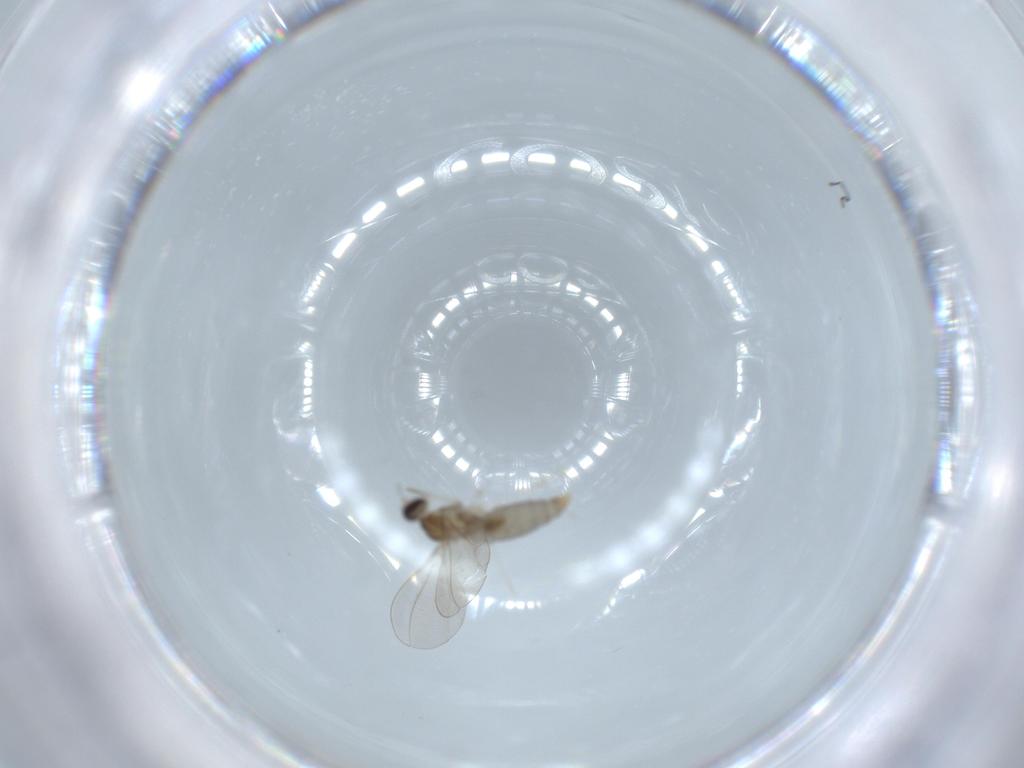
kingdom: Animalia
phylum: Arthropoda
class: Insecta
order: Diptera
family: Cecidomyiidae
